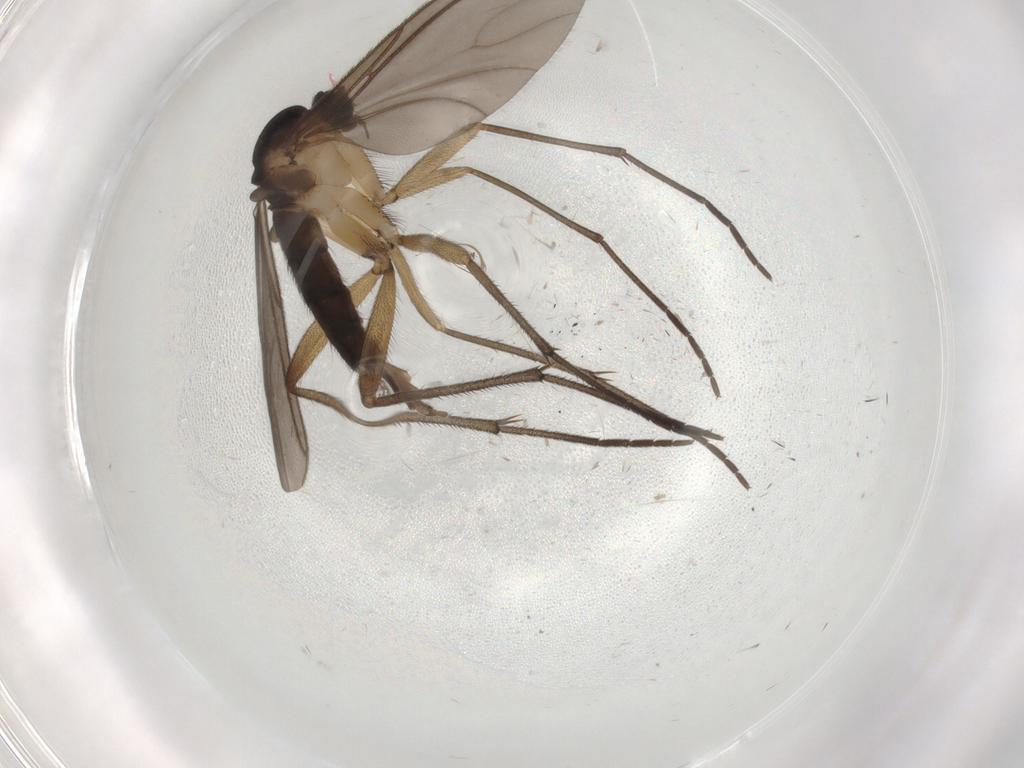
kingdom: Animalia
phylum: Arthropoda
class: Insecta
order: Diptera
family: Sciaridae
